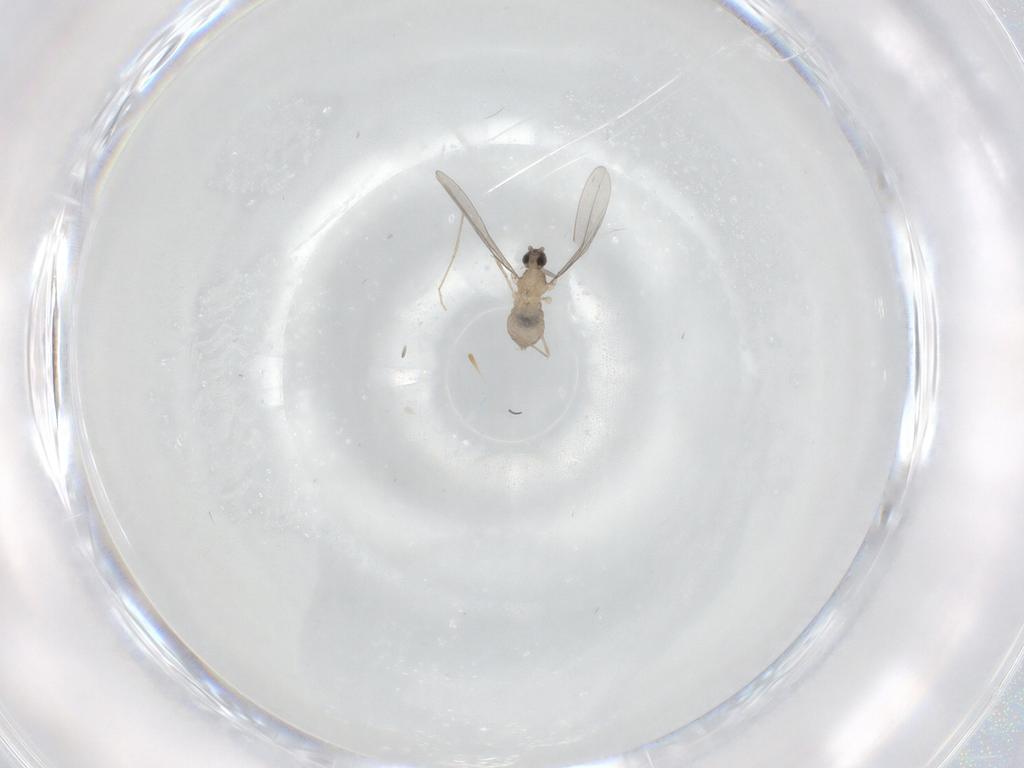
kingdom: Animalia
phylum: Arthropoda
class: Insecta
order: Diptera
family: Cecidomyiidae
